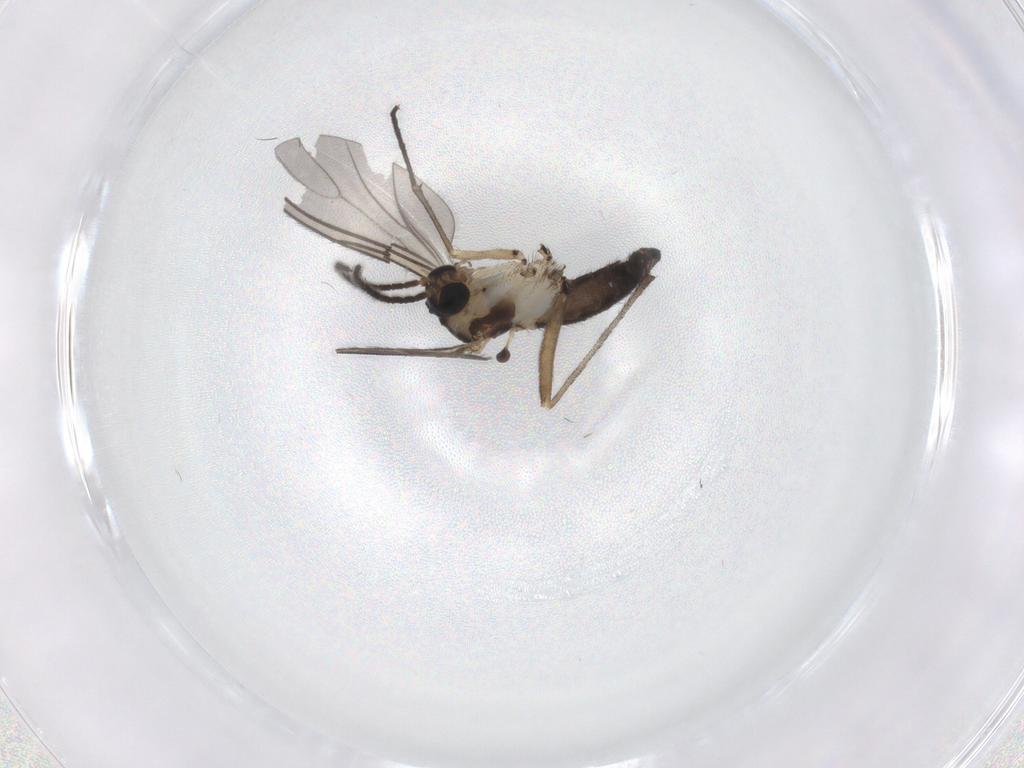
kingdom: Animalia
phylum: Arthropoda
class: Insecta
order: Diptera
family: Sciaridae
